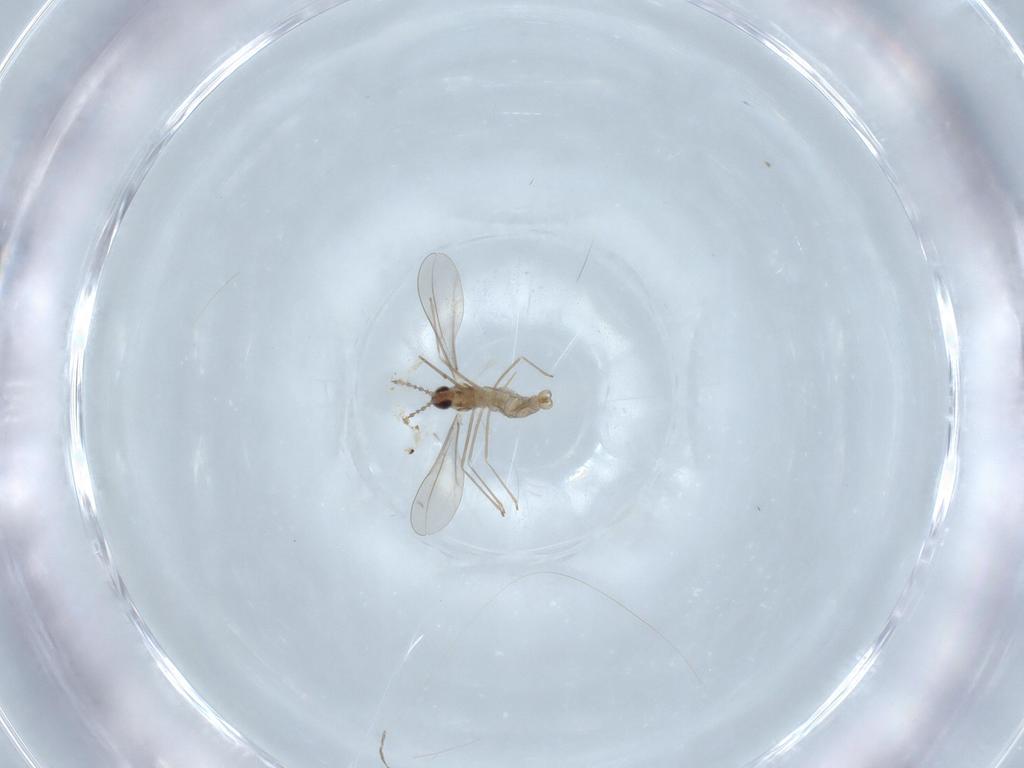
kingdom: Animalia
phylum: Arthropoda
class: Insecta
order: Diptera
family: Cecidomyiidae
